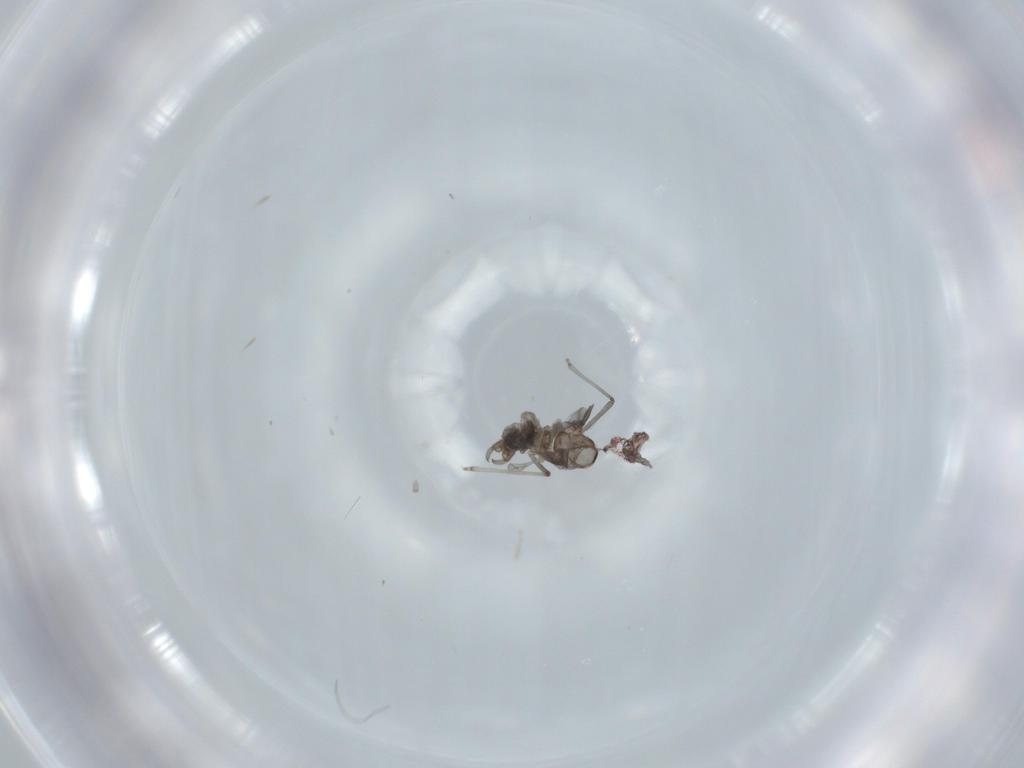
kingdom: Animalia
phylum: Arthropoda
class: Insecta
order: Diptera
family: Cecidomyiidae
